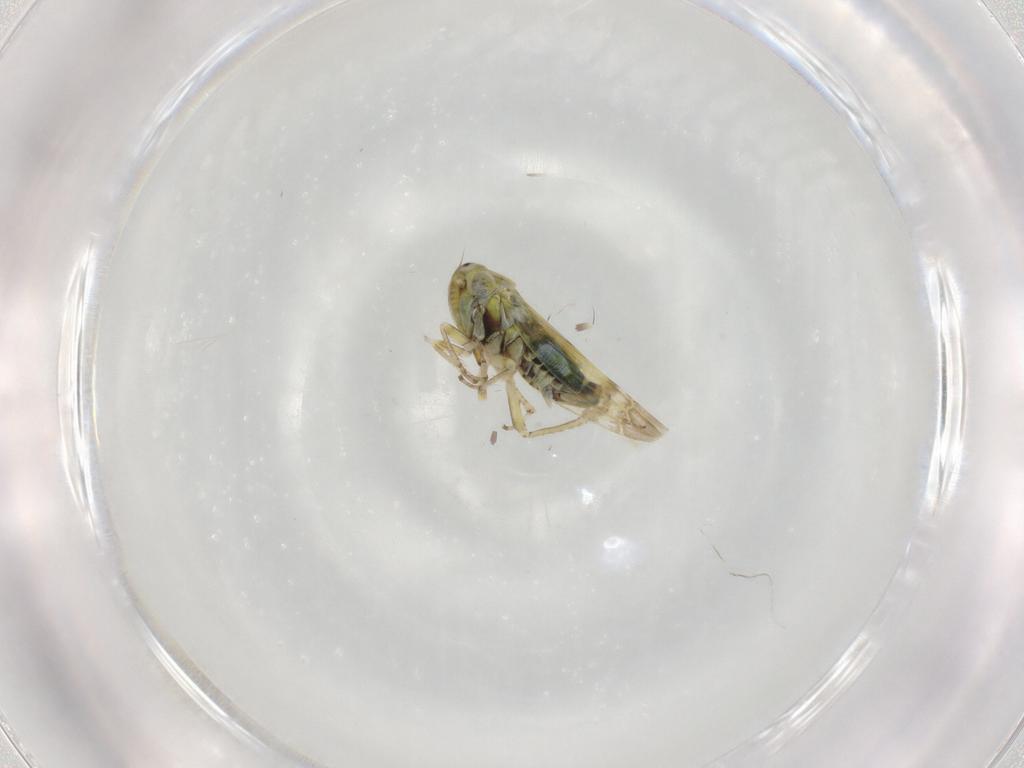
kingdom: Animalia
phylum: Arthropoda
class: Insecta
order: Hemiptera
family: Cicadellidae
